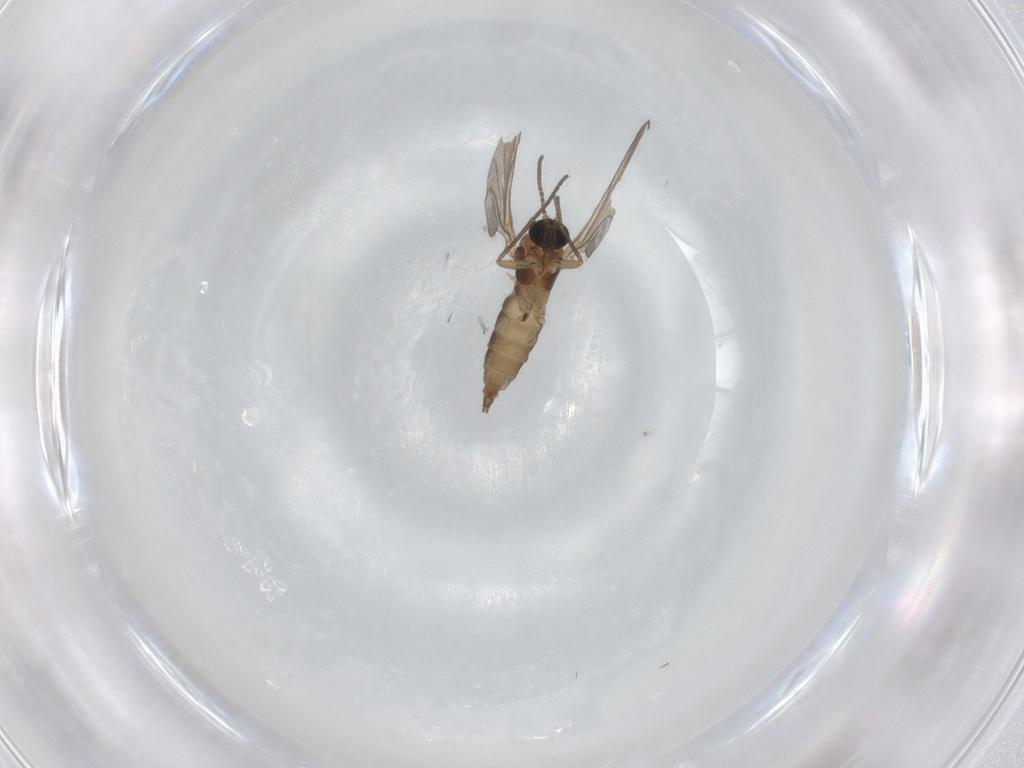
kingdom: Animalia
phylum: Arthropoda
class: Insecta
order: Diptera
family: Sciaridae
